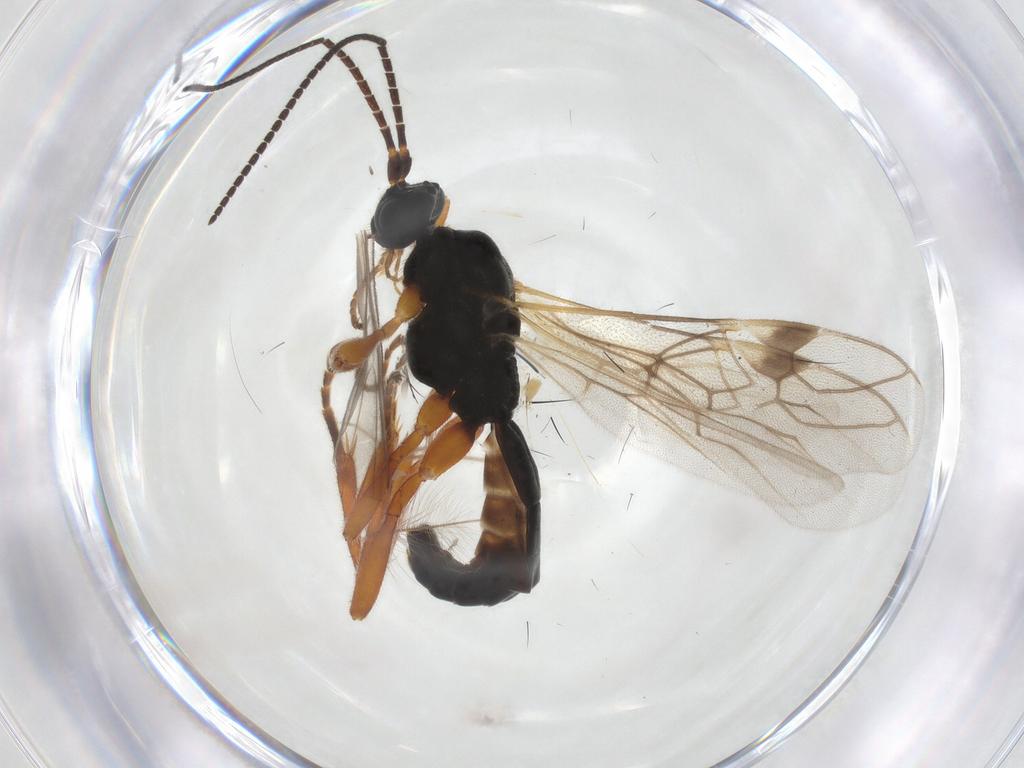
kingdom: Animalia
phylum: Arthropoda
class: Insecta
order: Hymenoptera
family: Braconidae
